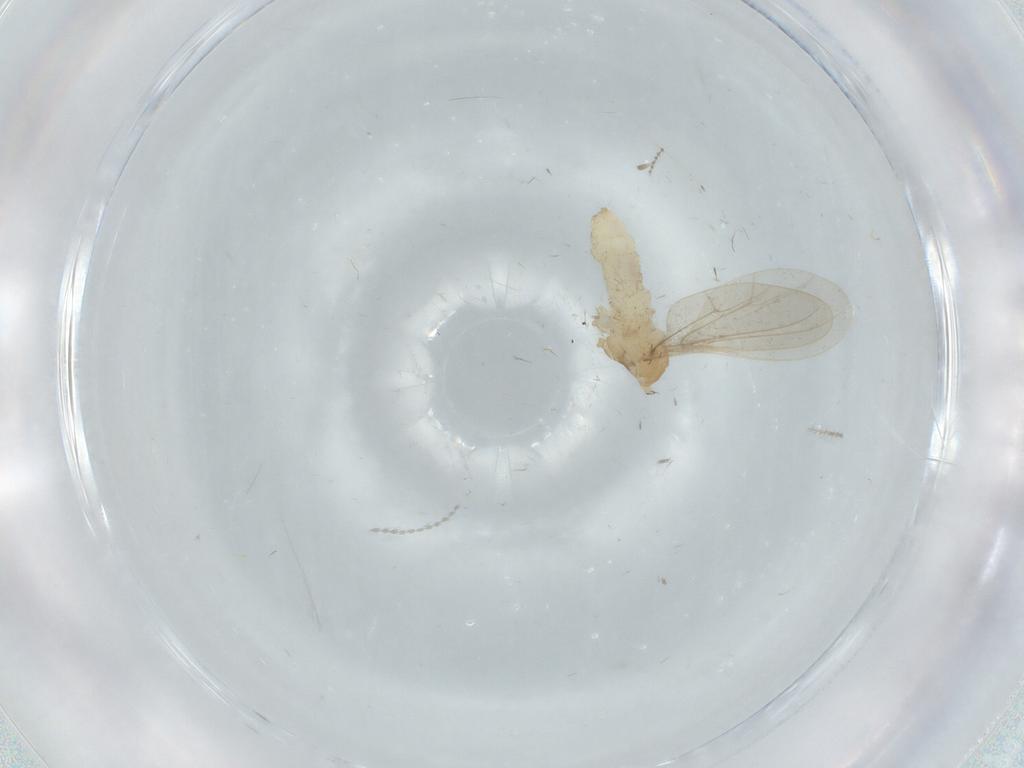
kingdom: Animalia
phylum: Arthropoda
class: Insecta
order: Diptera
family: Cecidomyiidae
